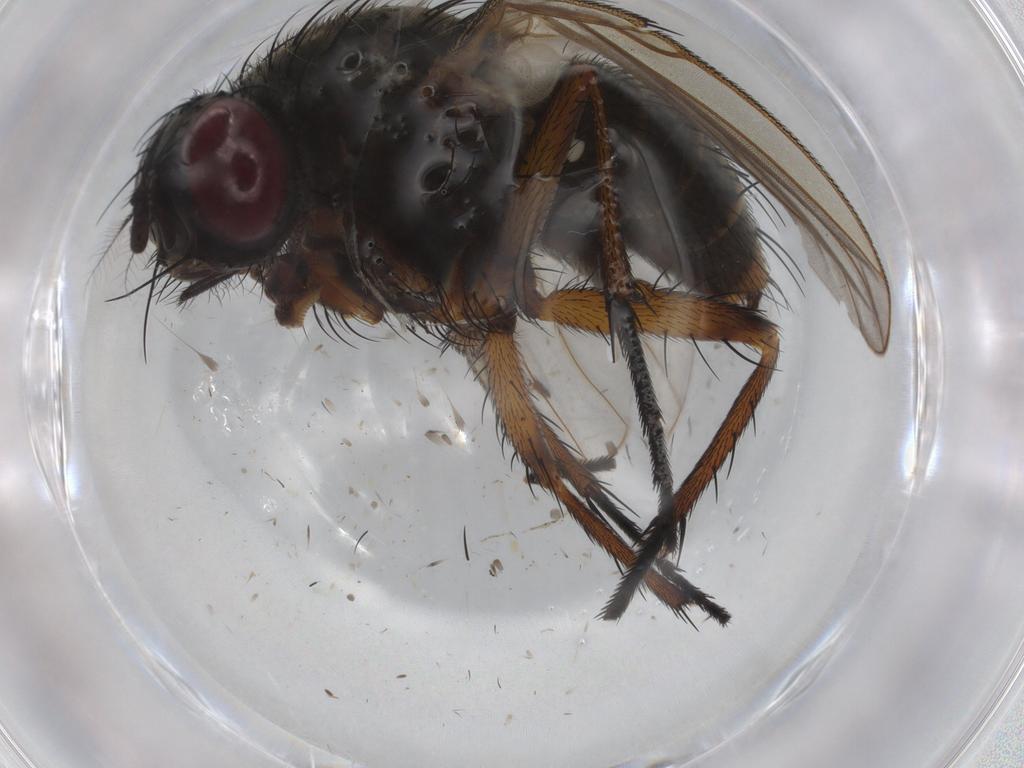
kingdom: Animalia
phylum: Arthropoda
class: Insecta
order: Diptera
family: Muscidae
